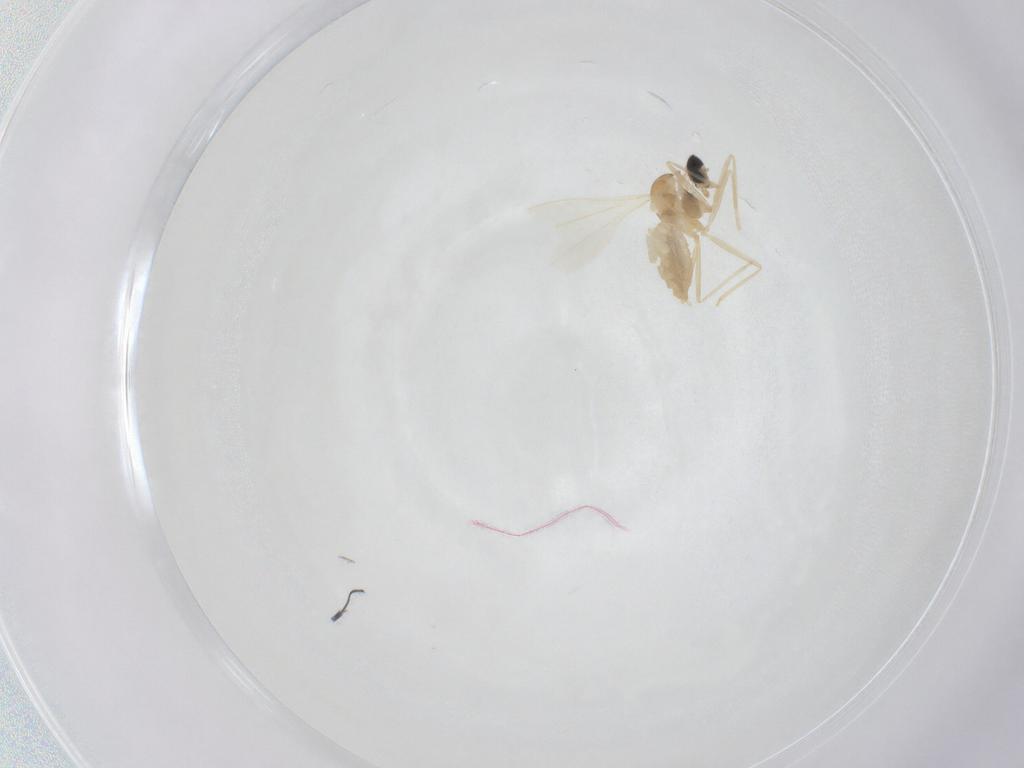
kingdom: Animalia
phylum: Arthropoda
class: Insecta
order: Diptera
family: Cecidomyiidae
